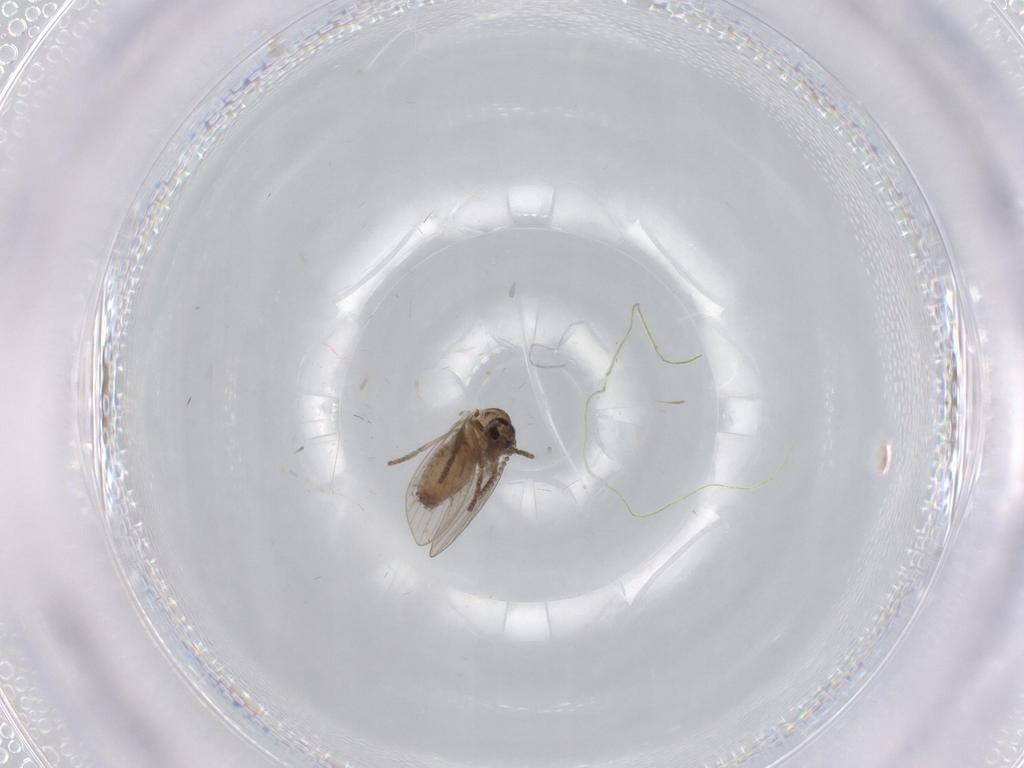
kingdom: Animalia
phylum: Arthropoda
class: Insecta
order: Diptera
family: Psychodidae
